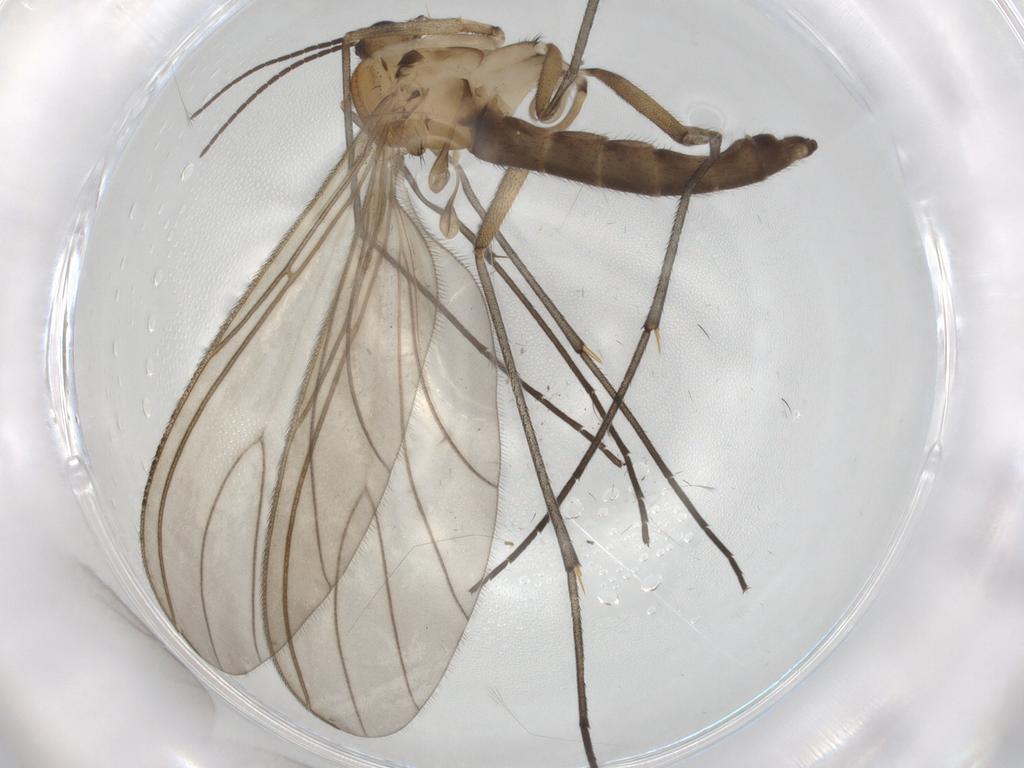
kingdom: Animalia
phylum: Arthropoda
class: Insecta
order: Diptera
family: Sciaridae
